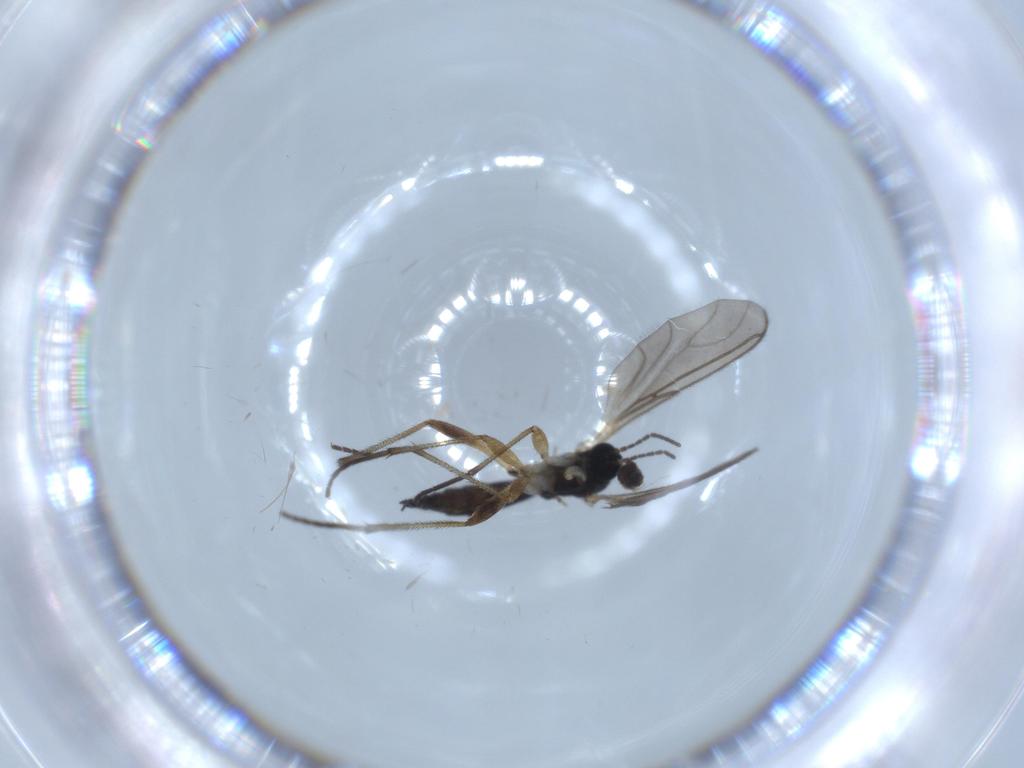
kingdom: Animalia
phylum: Arthropoda
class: Insecta
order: Diptera
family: Sciaridae
